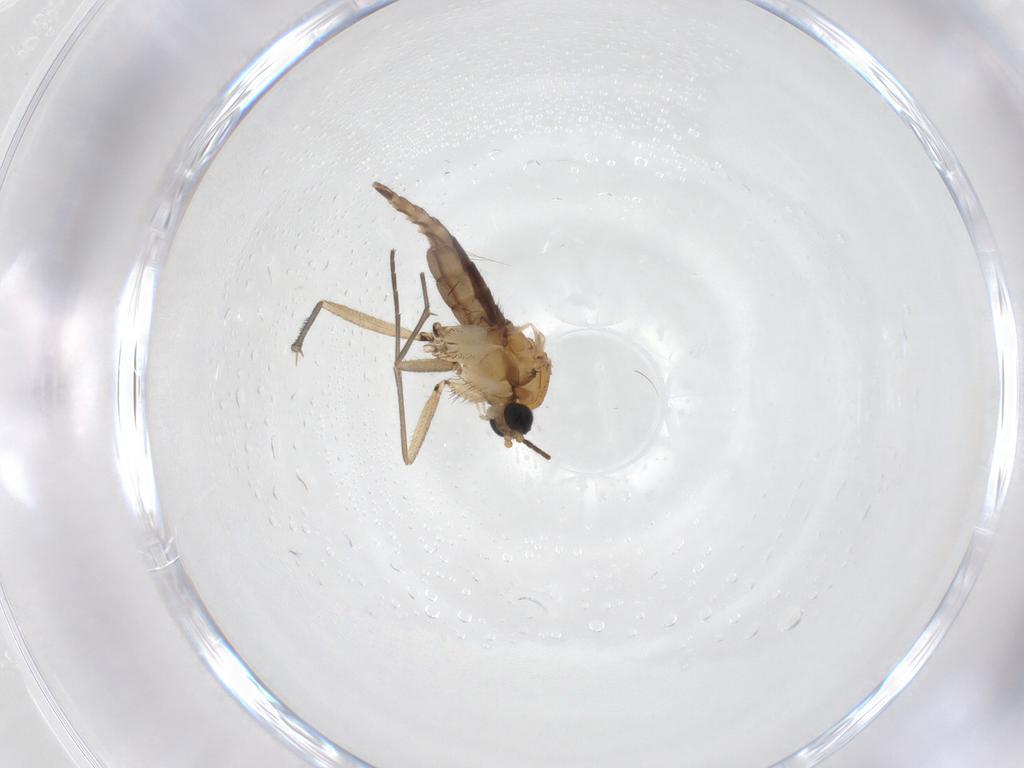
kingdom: Animalia
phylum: Arthropoda
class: Insecta
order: Diptera
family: Sciaridae
